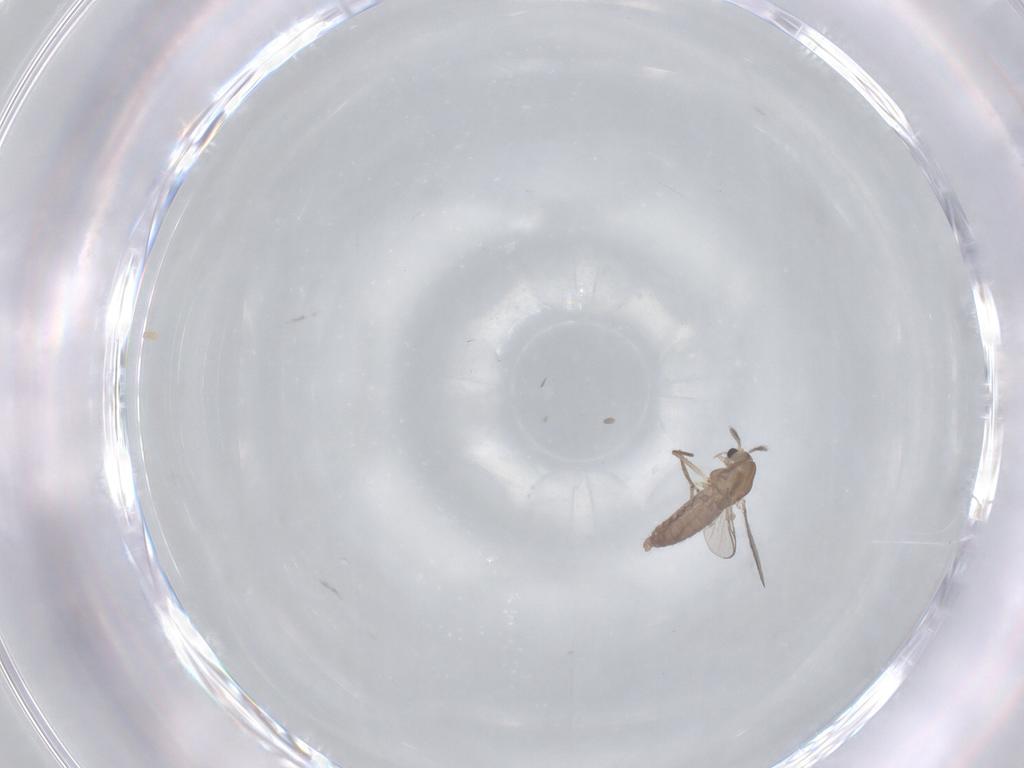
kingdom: Animalia
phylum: Arthropoda
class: Insecta
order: Diptera
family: Chironomidae
